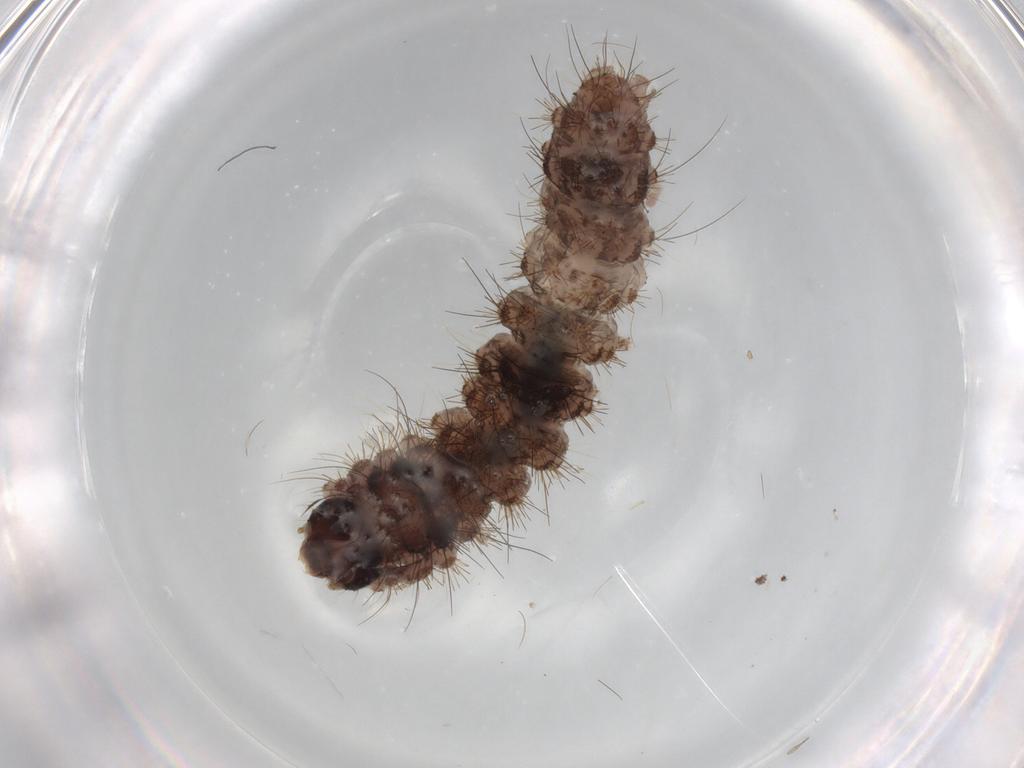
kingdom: Animalia
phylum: Arthropoda
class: Insecta
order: Lepidoptera
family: Erebidae
